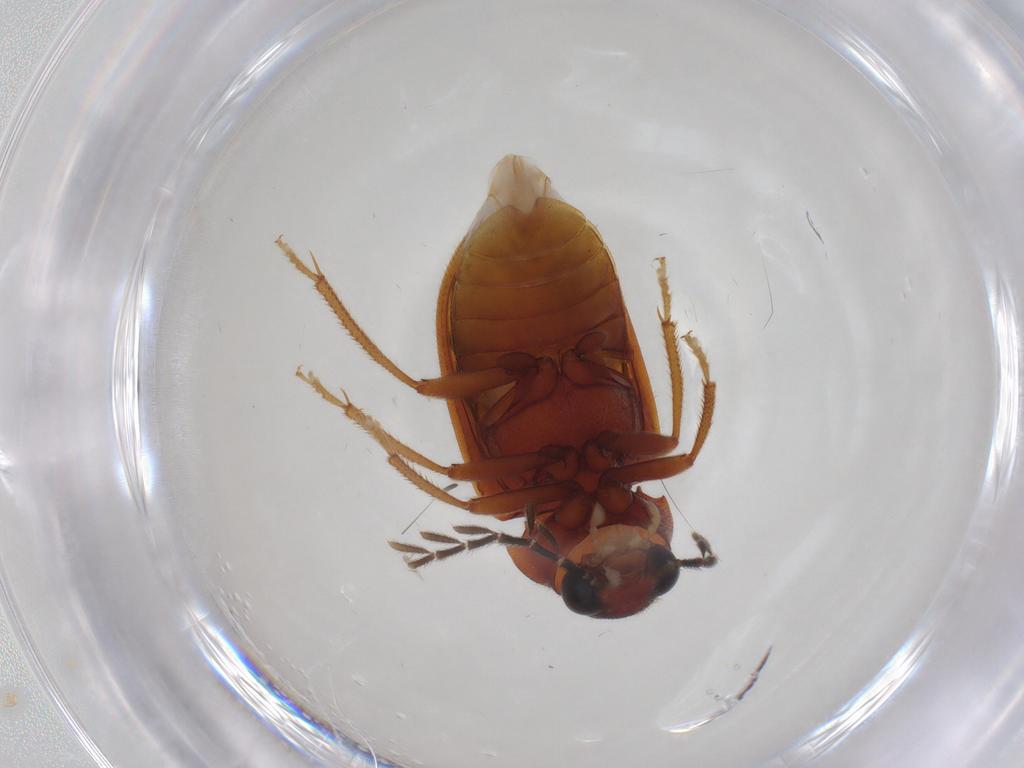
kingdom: Animalia
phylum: Arthropoda
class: Insecta
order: Coleoptera
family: Ptilodactylidae
